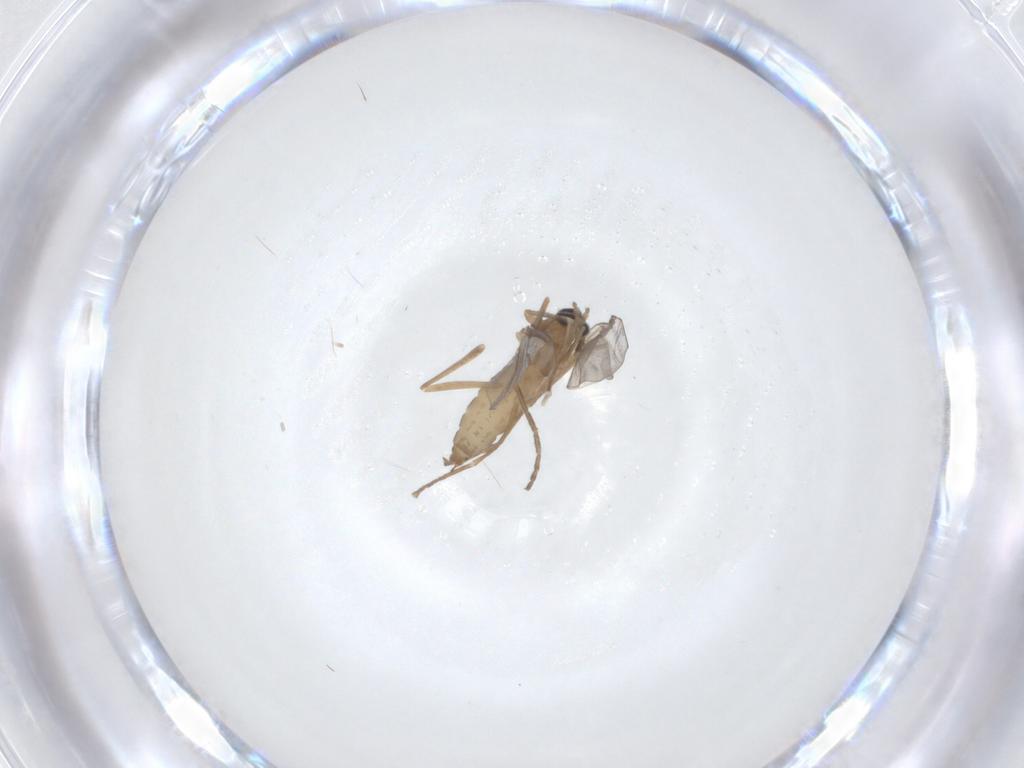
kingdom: Animalia
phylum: Arthropoda
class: Insecta
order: Diptera
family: Cecidomyiidae
